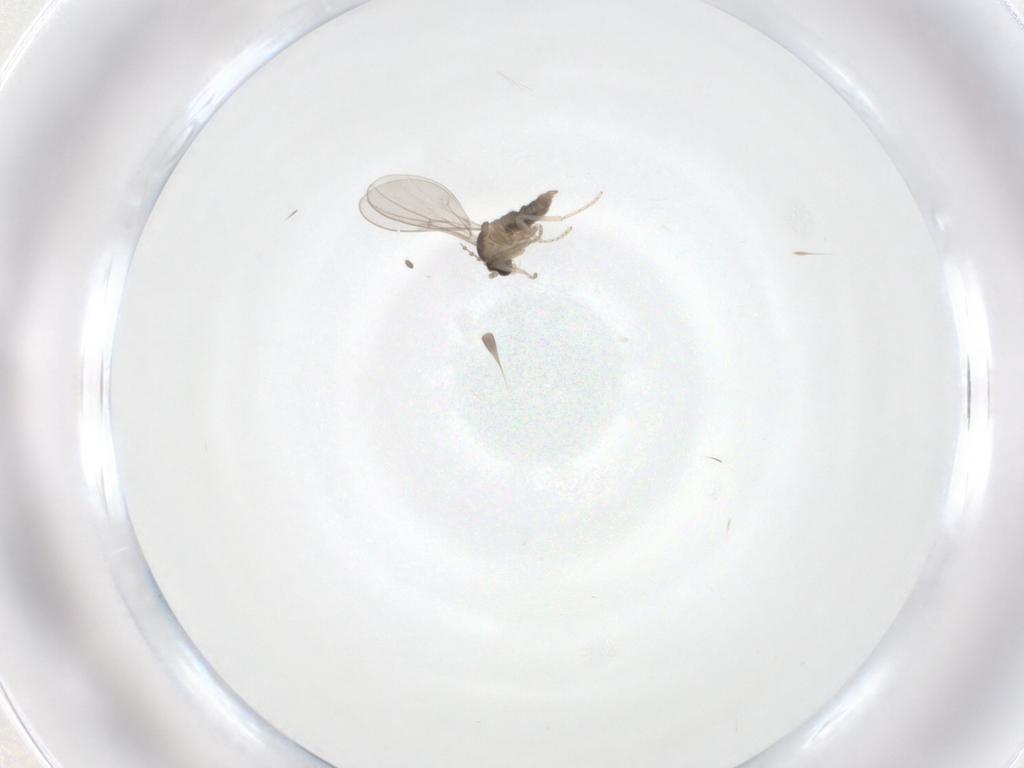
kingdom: Animalia
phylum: Arthropoda
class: Insecta
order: Diptera
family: Cecidomyiidae
